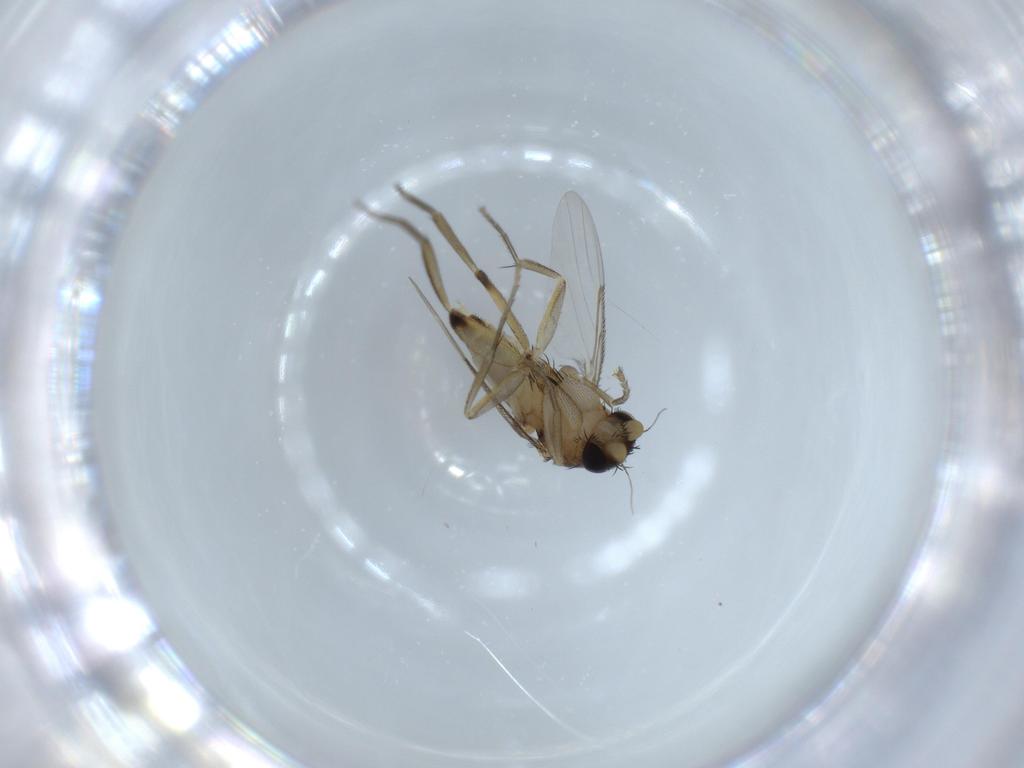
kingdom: Animalia
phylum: Arthropoda
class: Insecta
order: Diptera
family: Phoridae
